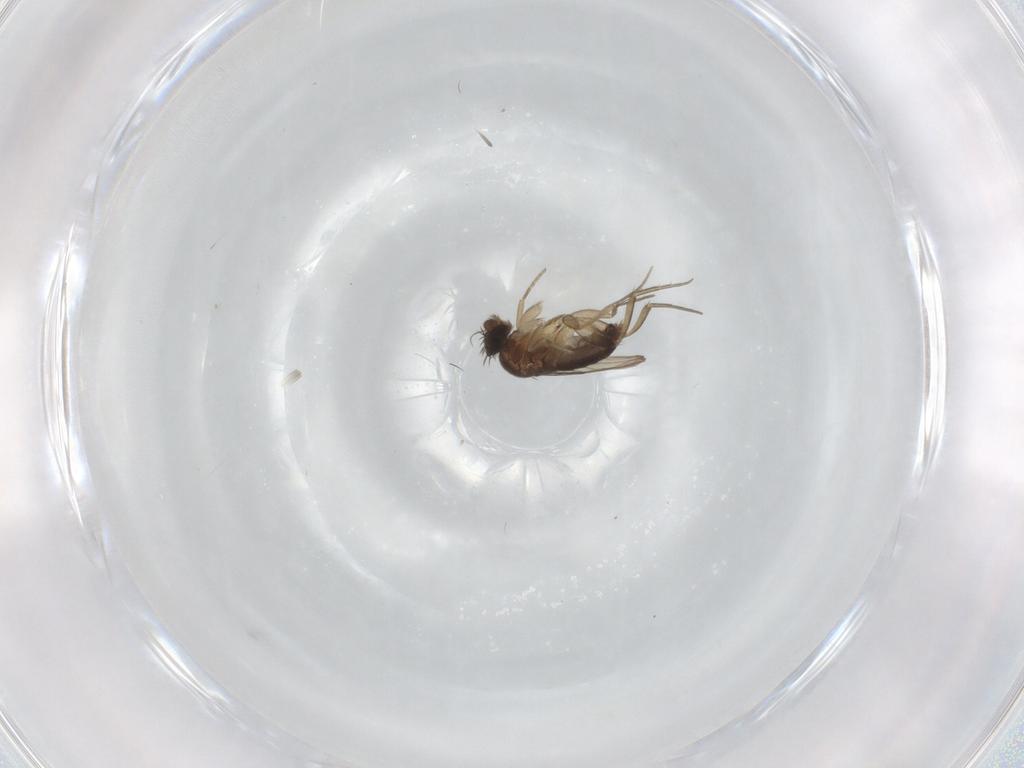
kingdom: Animalia
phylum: Arthropoda
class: Insecta
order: Diptera
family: Phoridae
